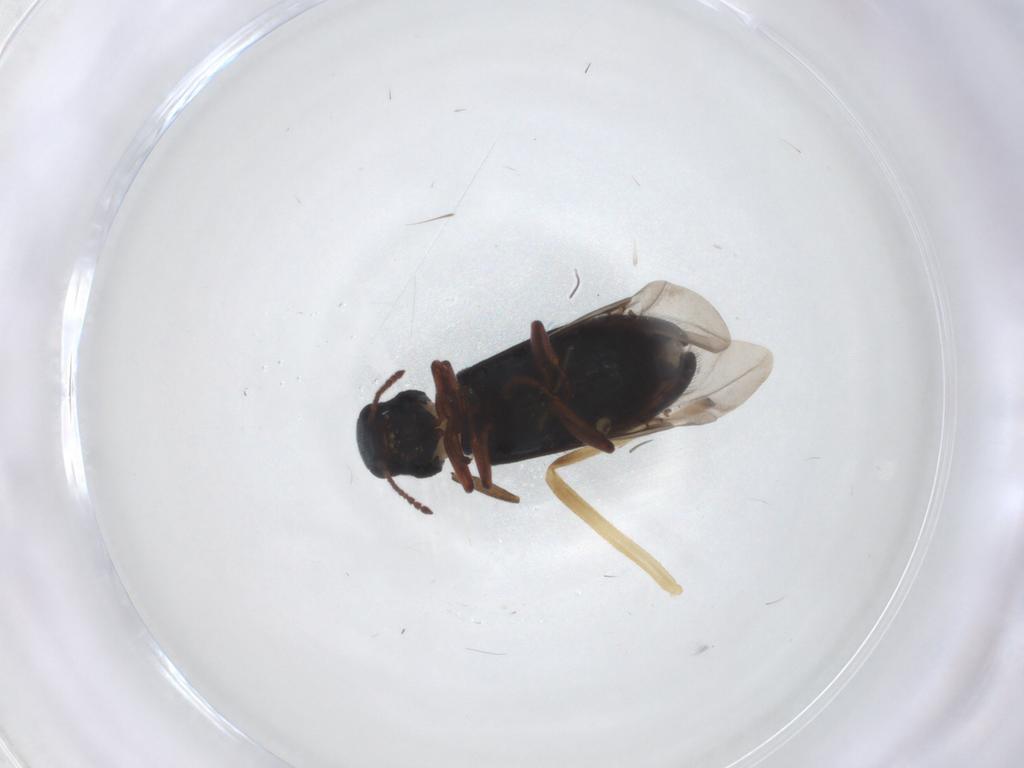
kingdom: Animalia
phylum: Arthropoda
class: Insecta
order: Coleoptera
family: Melyridae
